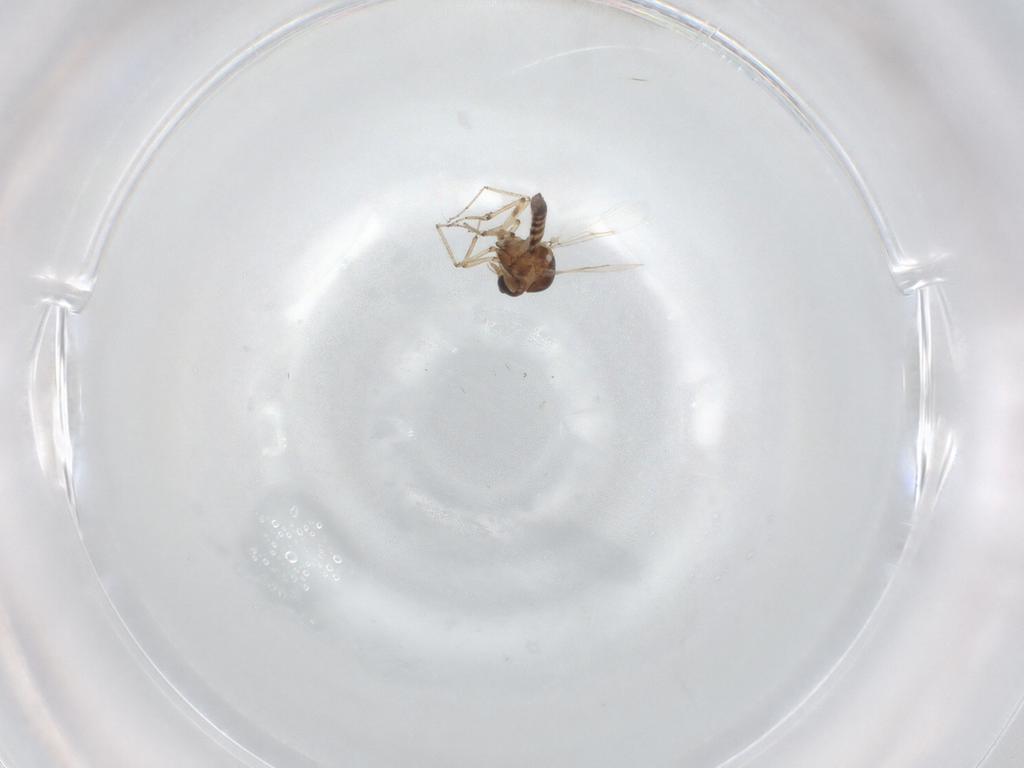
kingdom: Animalia
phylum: Arthropoda
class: Insecta
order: Diptera
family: Ceratopogonidae
